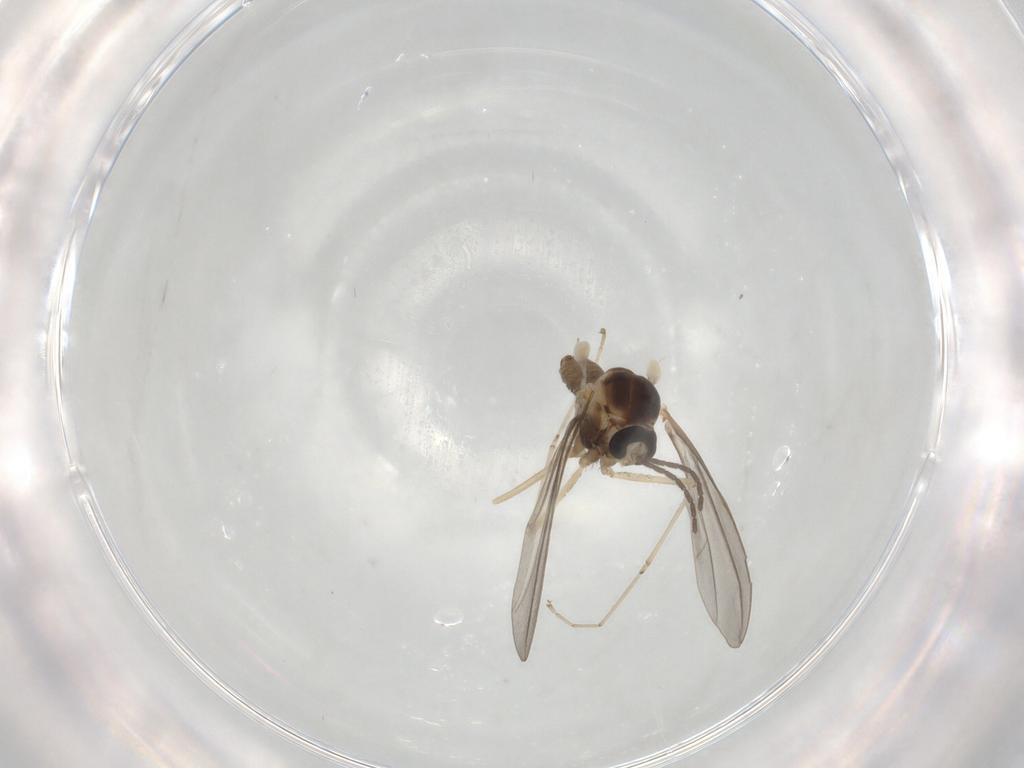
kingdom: Animalia
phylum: Arthropoda
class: Insecta
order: Diptera
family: Cecidomyiidae
